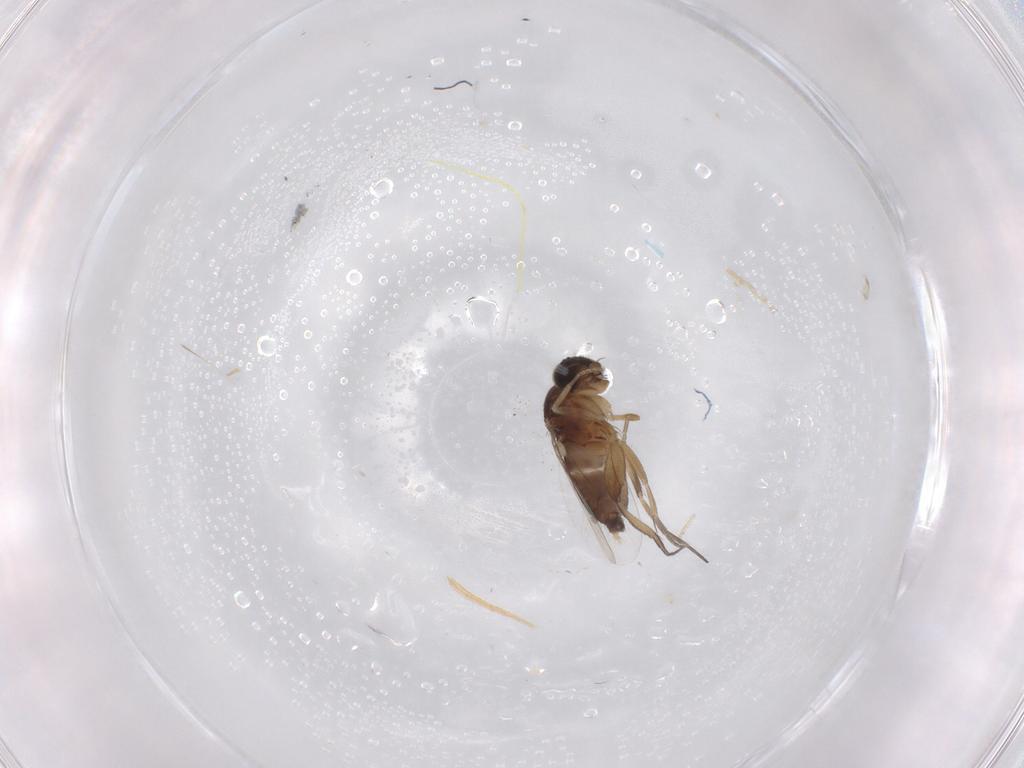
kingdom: Animalia
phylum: Arthropoda
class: Insecta
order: Diptera
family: Phoridae
